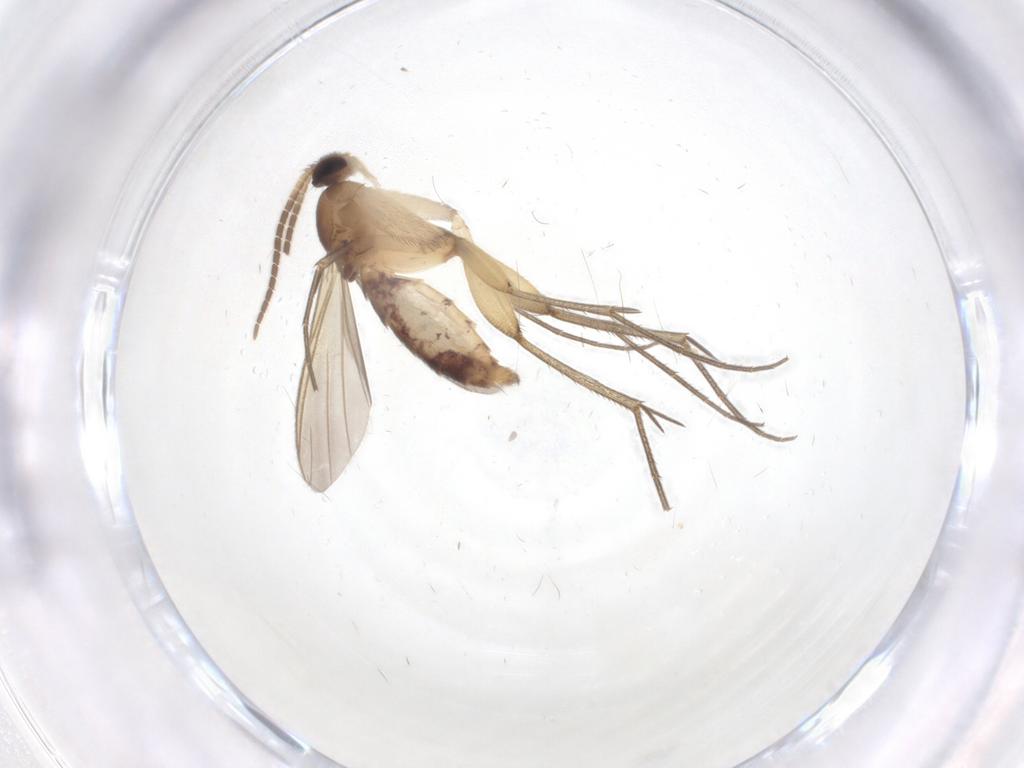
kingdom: Animalia
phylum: Arthropoda
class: Insecta
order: Diptera
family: Mycetophilidae
